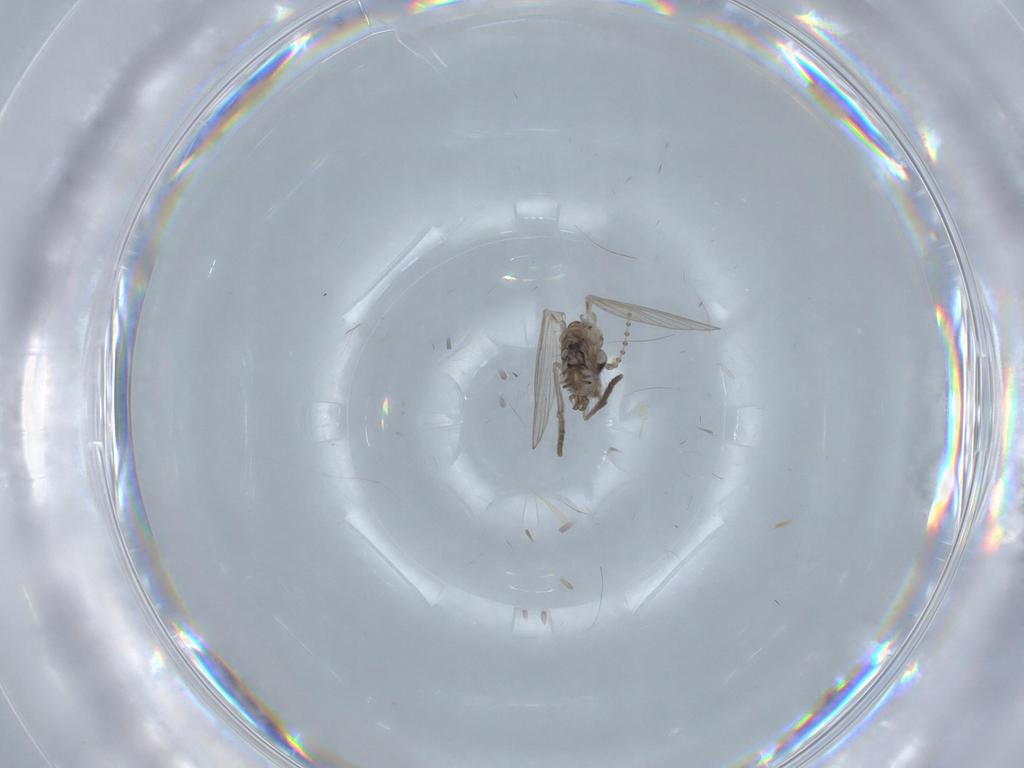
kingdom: Animalia
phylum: Arthropoda
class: Insecta
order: Diptera
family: Psychodidae
